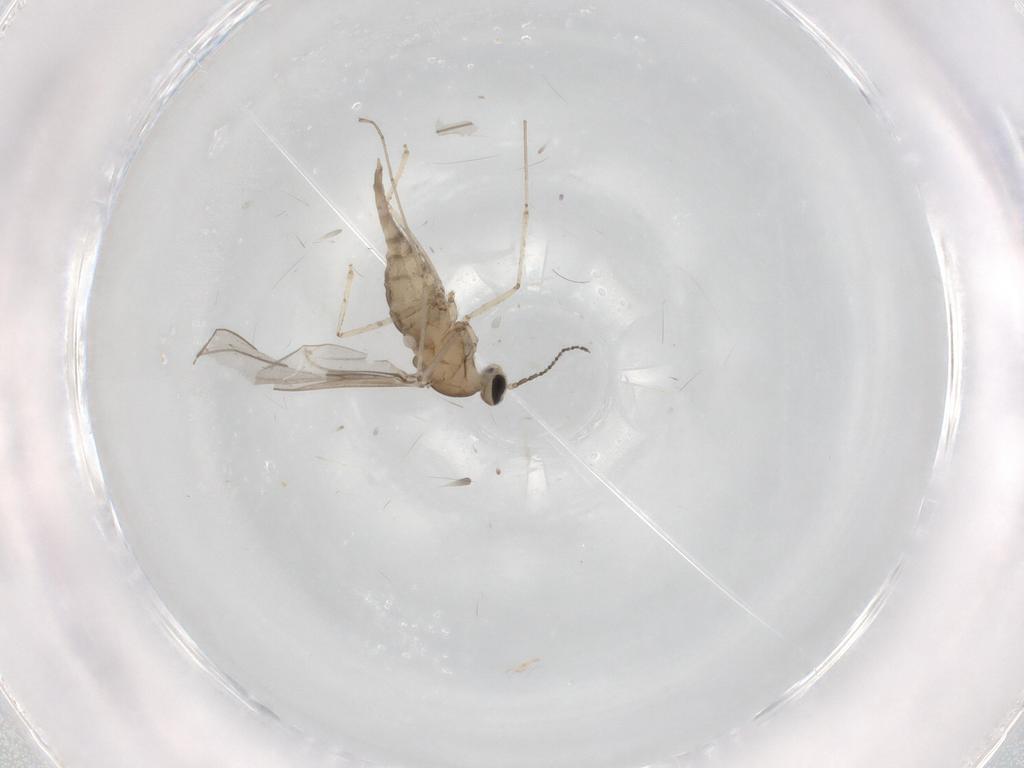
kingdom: Animalia
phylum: Arthropoda
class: Insecta
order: Diptera
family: Cecidomyiidae
